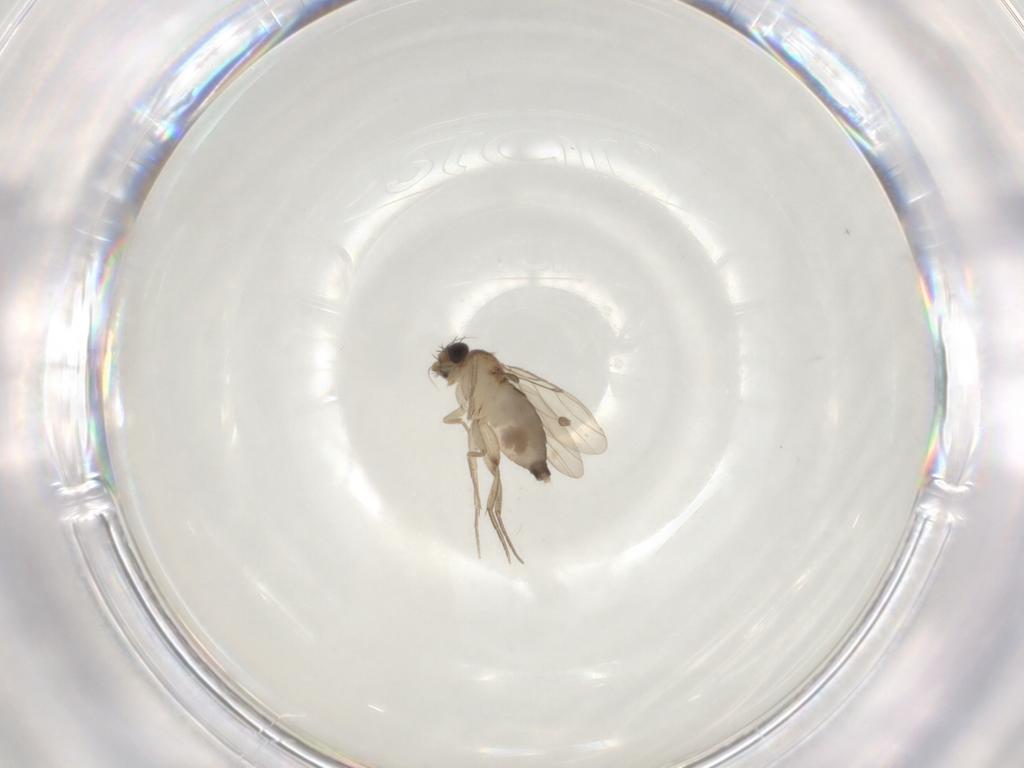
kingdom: Animalia
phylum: Arthropoda
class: Insecta
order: Diptera
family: Phoridae
